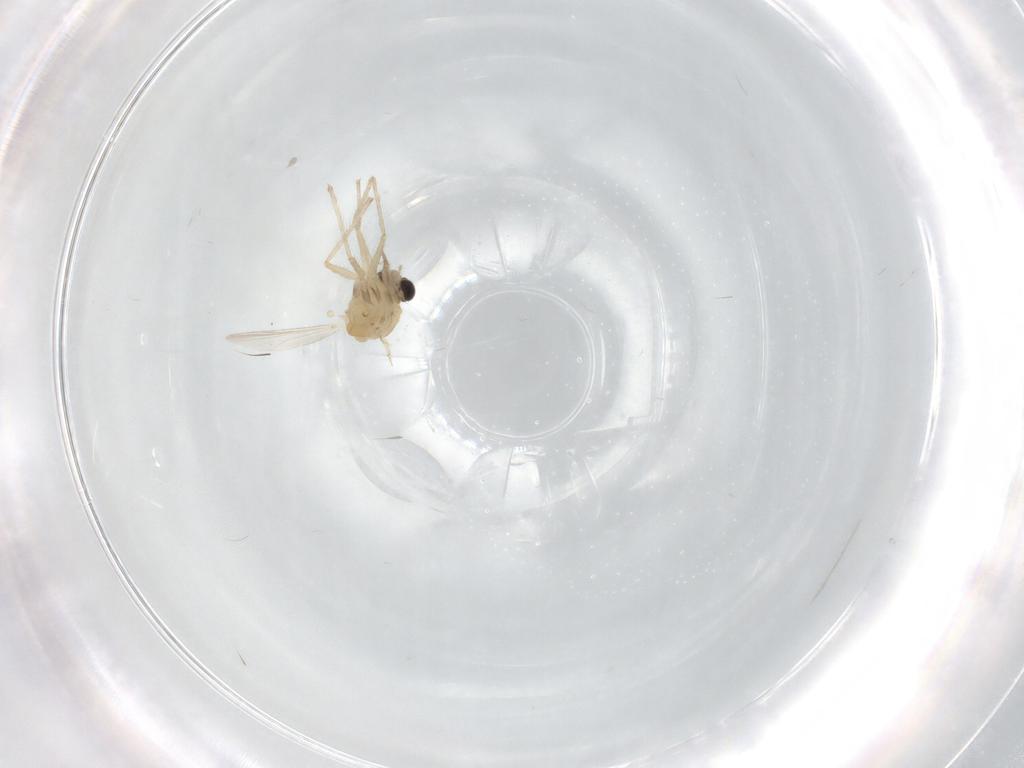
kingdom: Animalia
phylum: Arthropoda
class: Insecta
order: Diptera
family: Chironomidae
